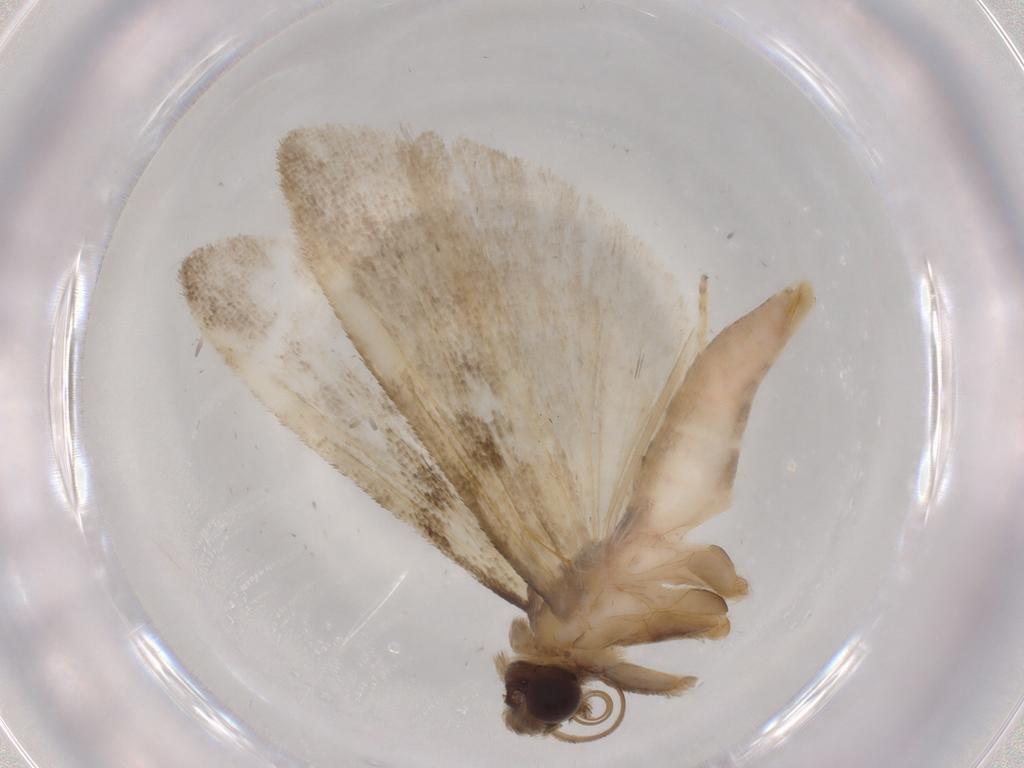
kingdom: Animalia
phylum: Arthropoda
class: Insecta
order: Lepidoptera
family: Noctuidae
